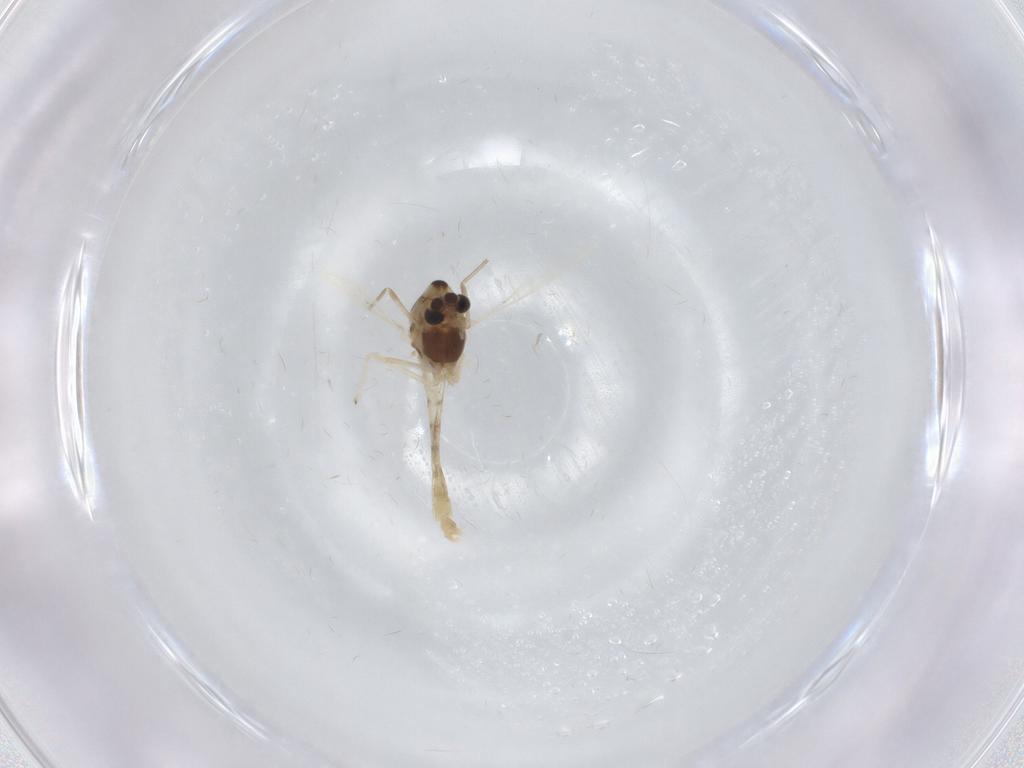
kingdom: Animalia
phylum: Arthropoda
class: Insecta
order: Diptera
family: Chironomidae
